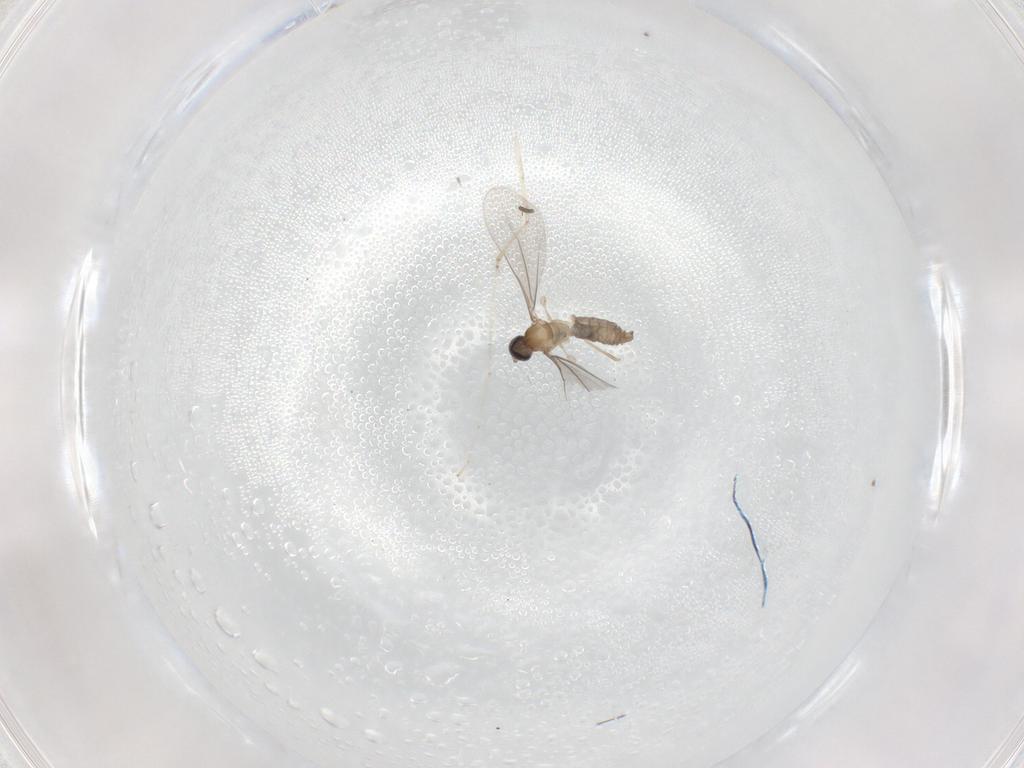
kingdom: Animalia
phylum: Arthropoda
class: Insecta
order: Diptera
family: Cecidomyiidae
